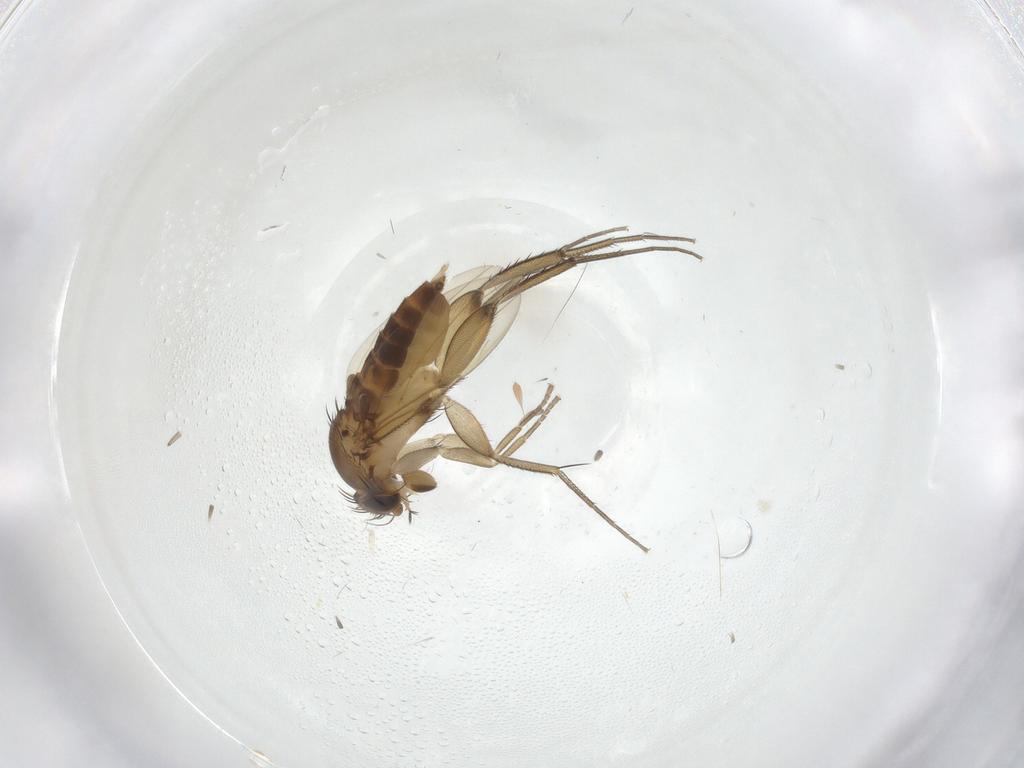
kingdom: Animalia
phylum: Arthropoda
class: Insecta
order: Diptera
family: Phoridae
